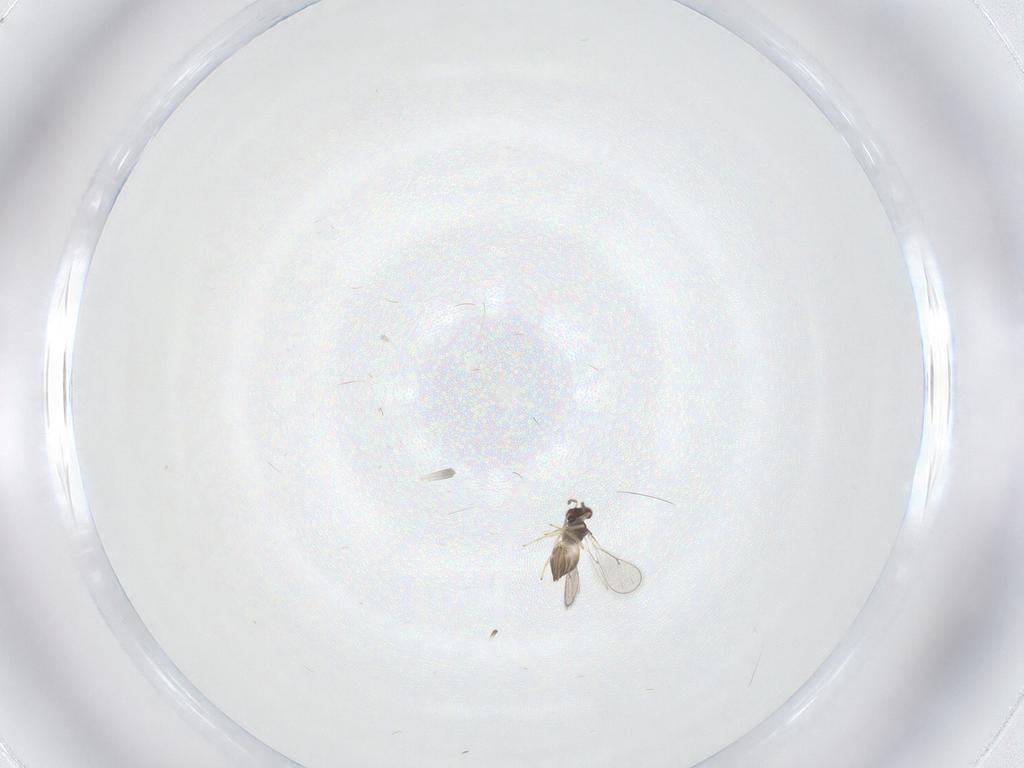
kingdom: Animalia
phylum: Arthropoda
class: Insecta
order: Hymenoptera
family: Eulophidae
